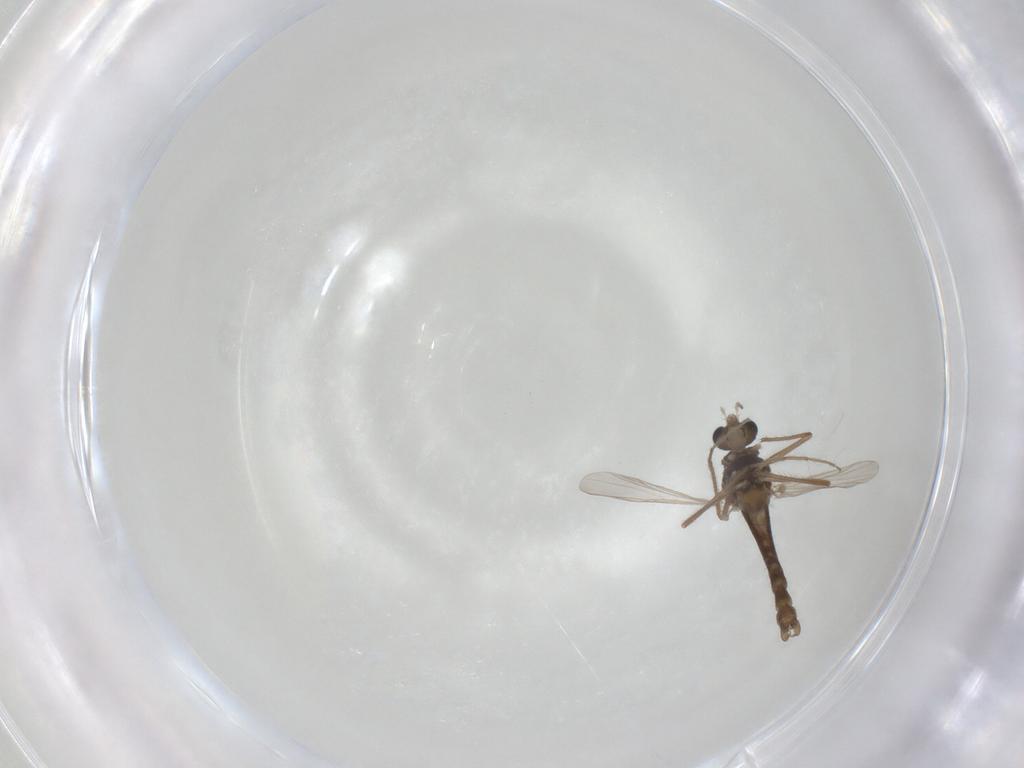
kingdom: Animalia
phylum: Arthropoda
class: Insecta
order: Diptera
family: Chironomidae
